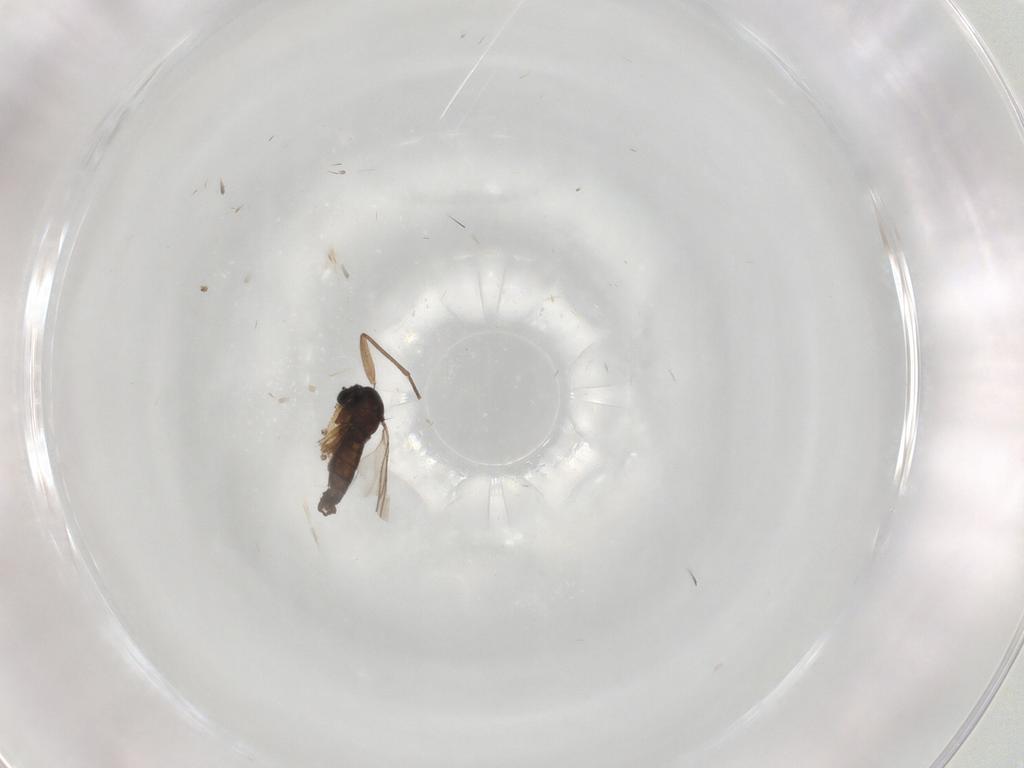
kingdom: Animalia
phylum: Arthropoda
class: Insecta
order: Diptera
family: Sciaridae
